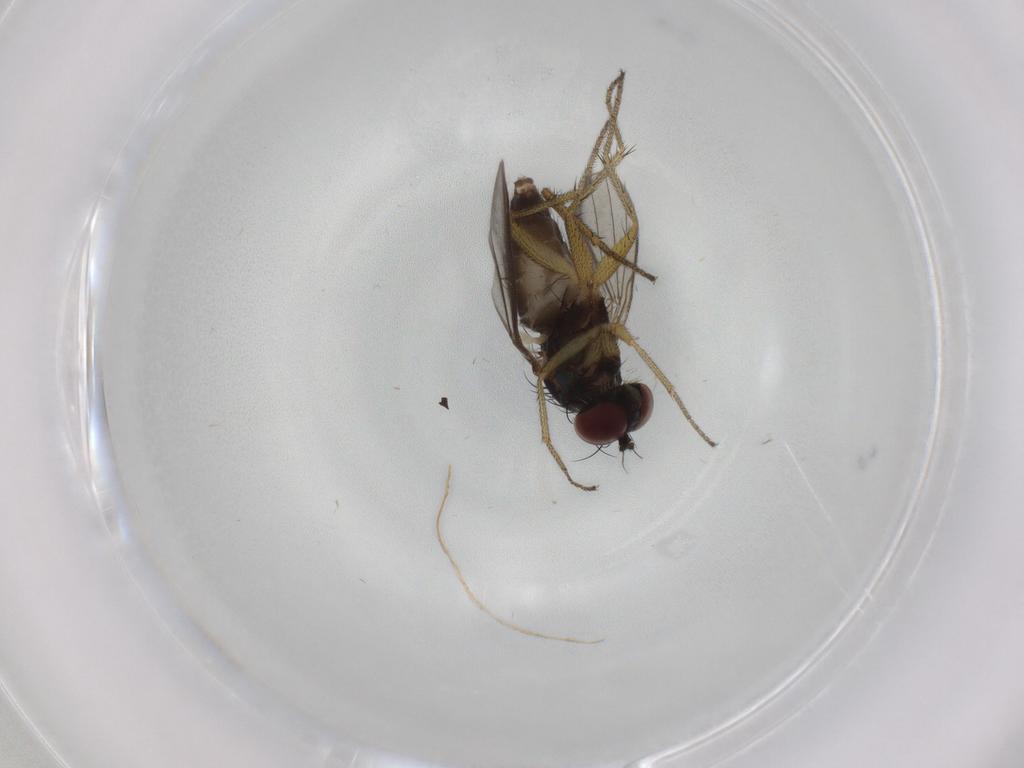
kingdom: Animalia
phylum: Arthropoda
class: Insecta
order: Diptera
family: Dolichopodidae
